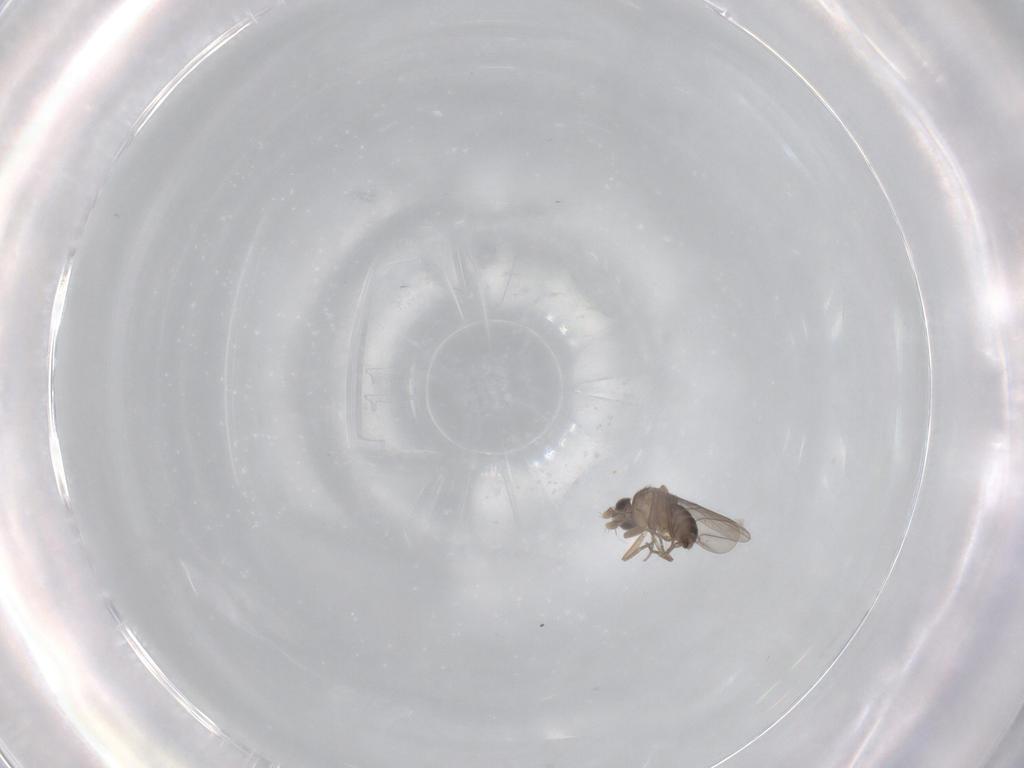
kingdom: Animalia
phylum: Arthropoda
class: Insecta
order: Diptera
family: Phoridae
